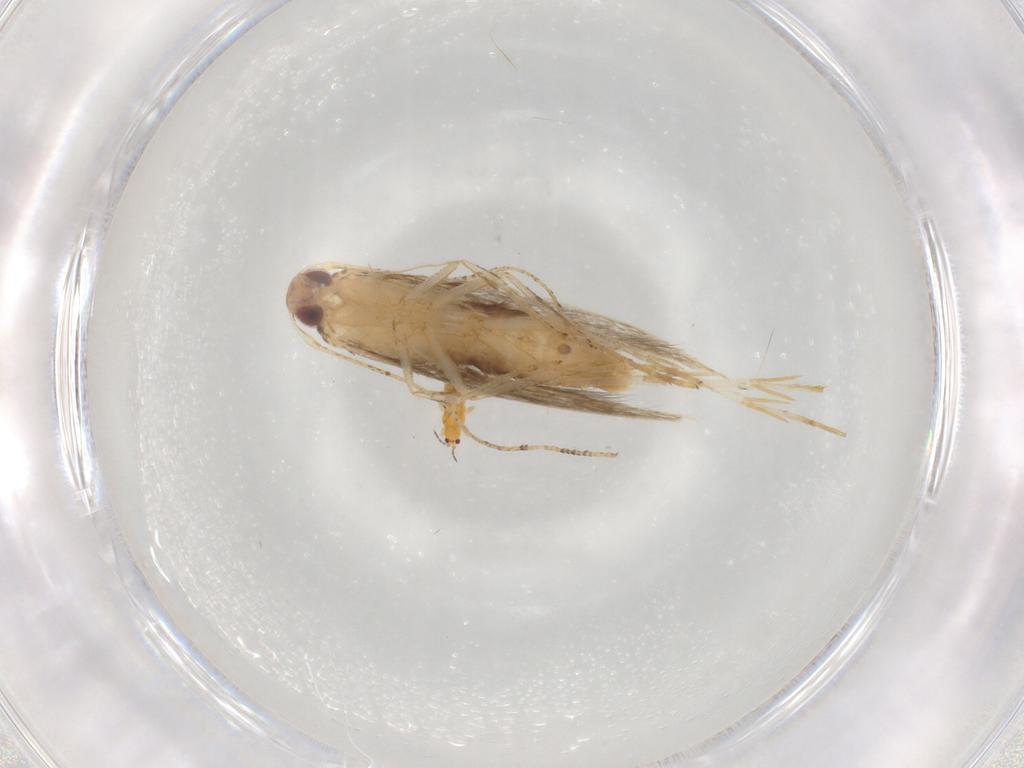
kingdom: Animalia
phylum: Arthropoda
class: Insecta
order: Lepidoptera
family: Cosmopterigidae
